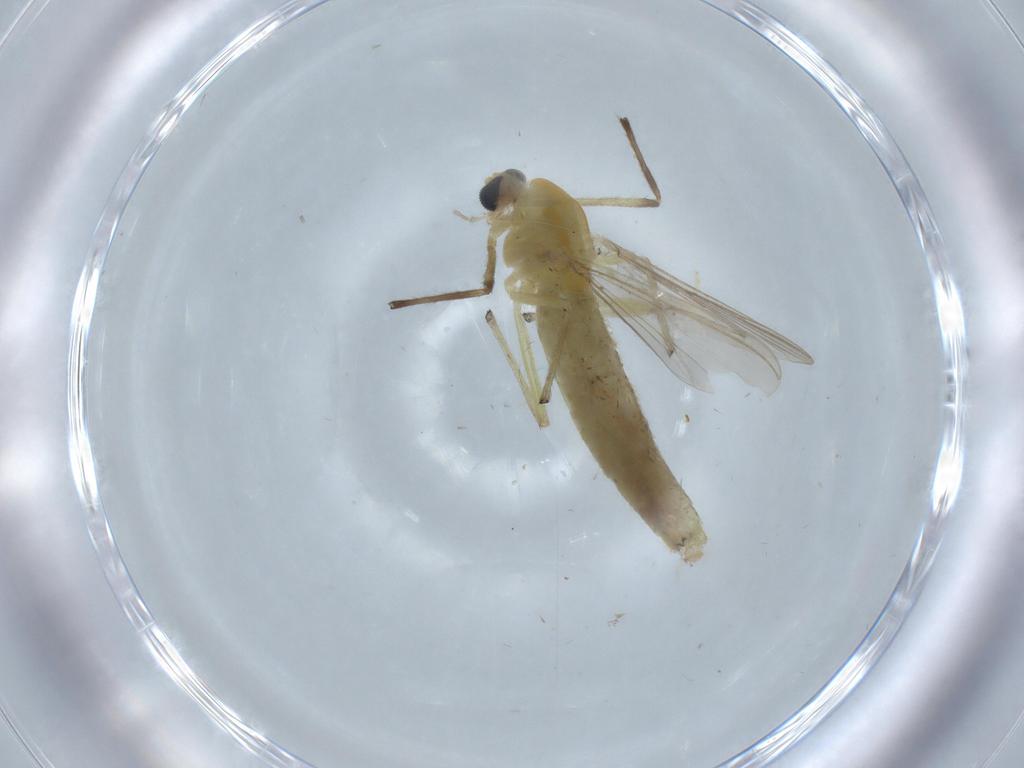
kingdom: Animalia
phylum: Arthropoda
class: Insecta
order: Diptera
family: Chironomidae
